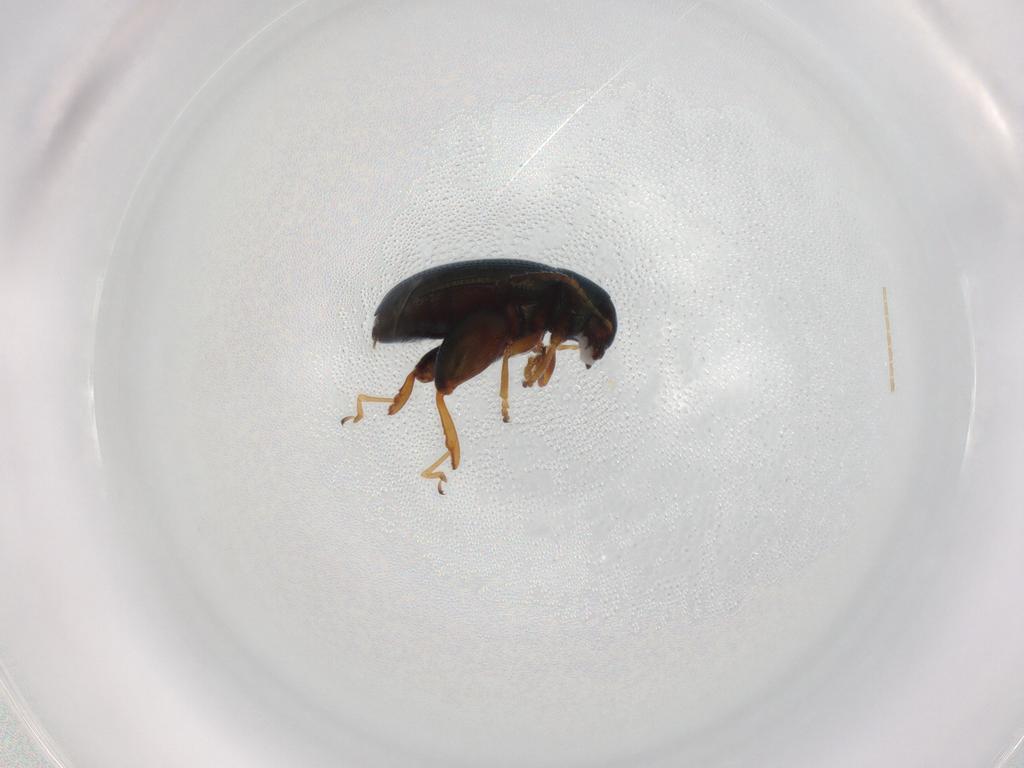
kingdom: Animalia
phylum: Arthropoda
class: Insecta
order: Coleoptera
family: Chrysomelidae
